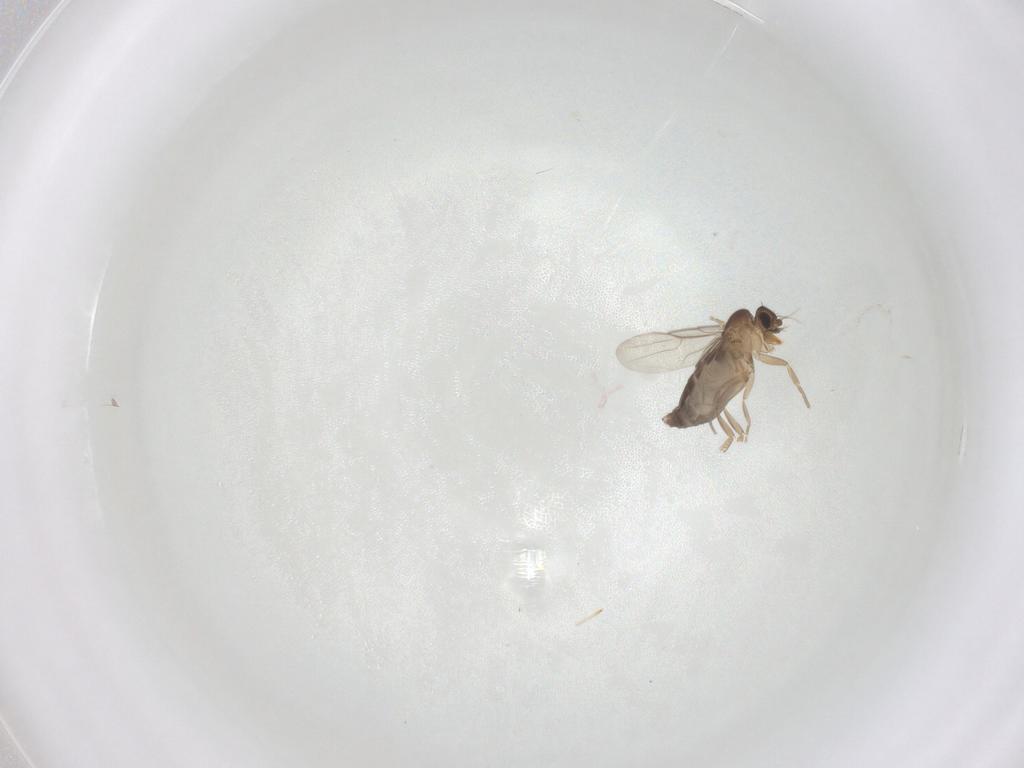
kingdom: Animalia
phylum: Arthropoda
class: Insecta
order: Diptera
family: Phoridae
